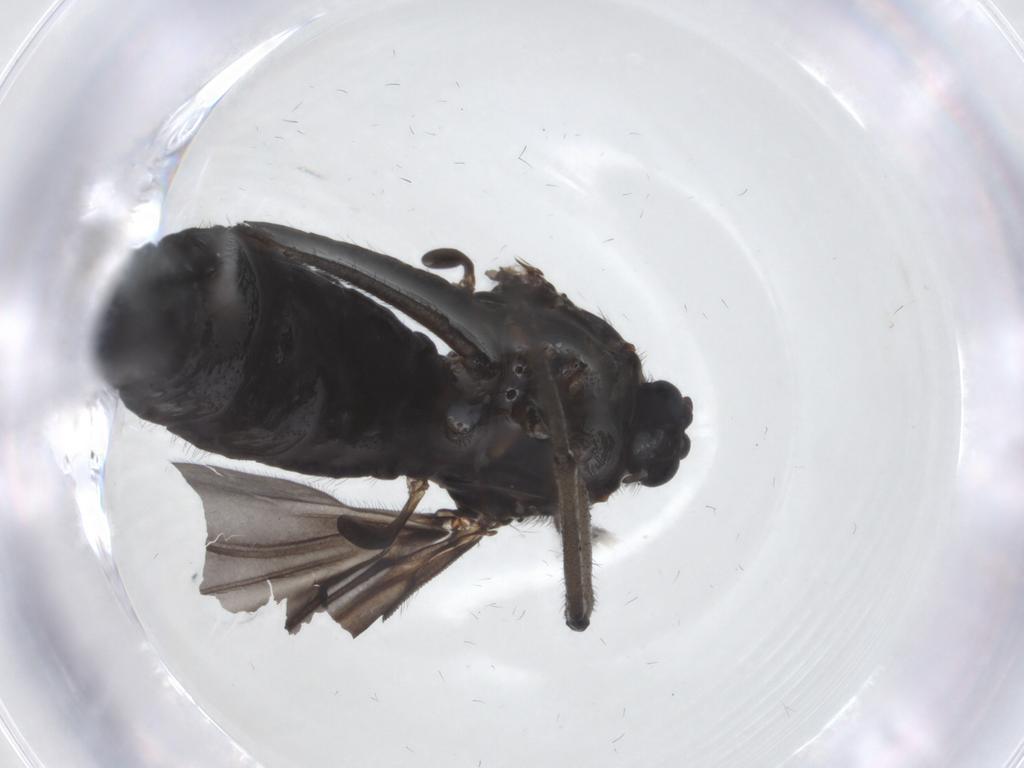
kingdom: Animalia
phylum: Arthropoda
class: Insecta
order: Diptera
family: Sciaridae
